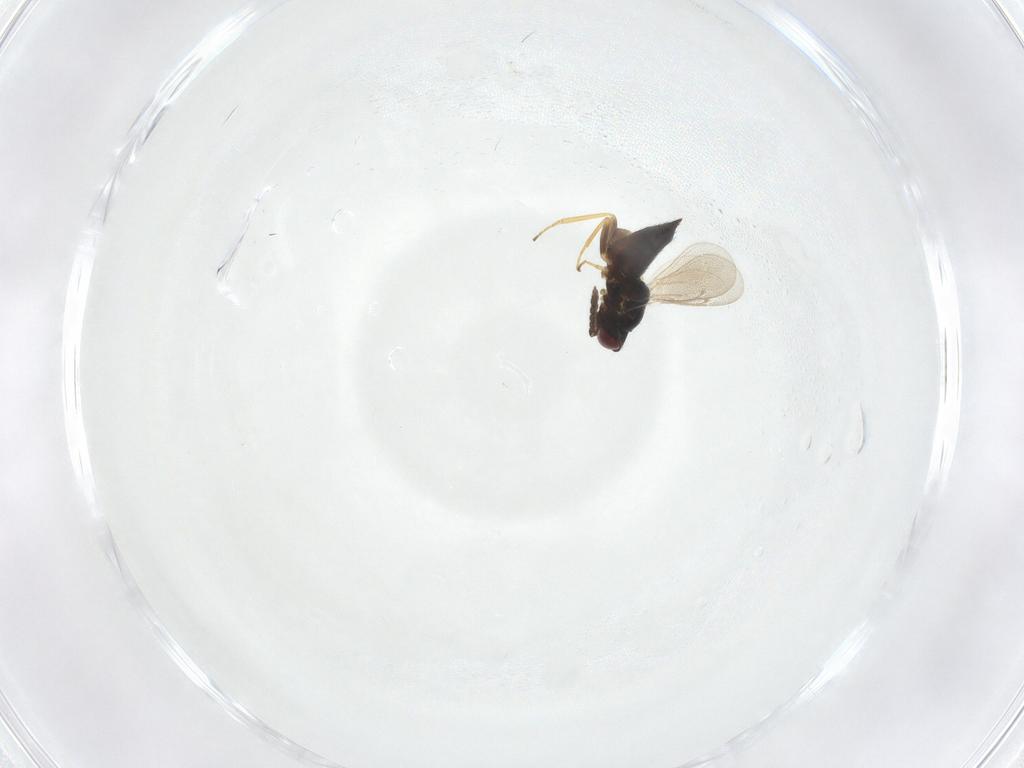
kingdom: Animalia
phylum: Arthropoda
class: Insecta
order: Hymenoptera
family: Eulophidae
